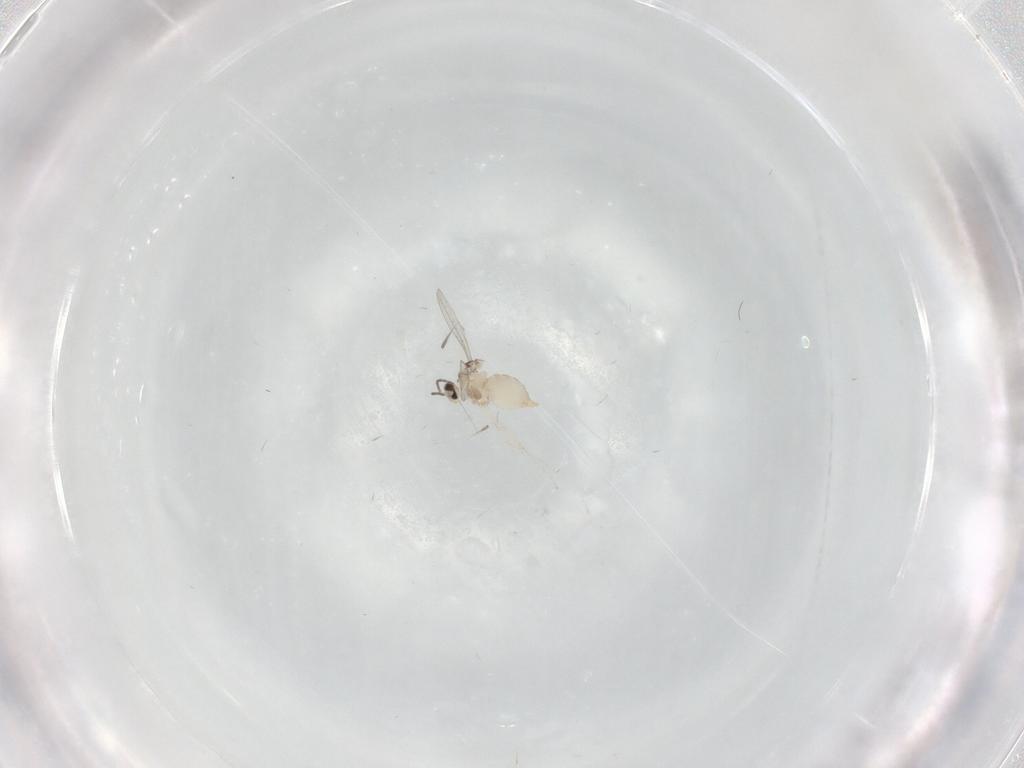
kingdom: Animalia
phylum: Arthropoda
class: Insecta
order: Diptera
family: Cecidomyiidae
